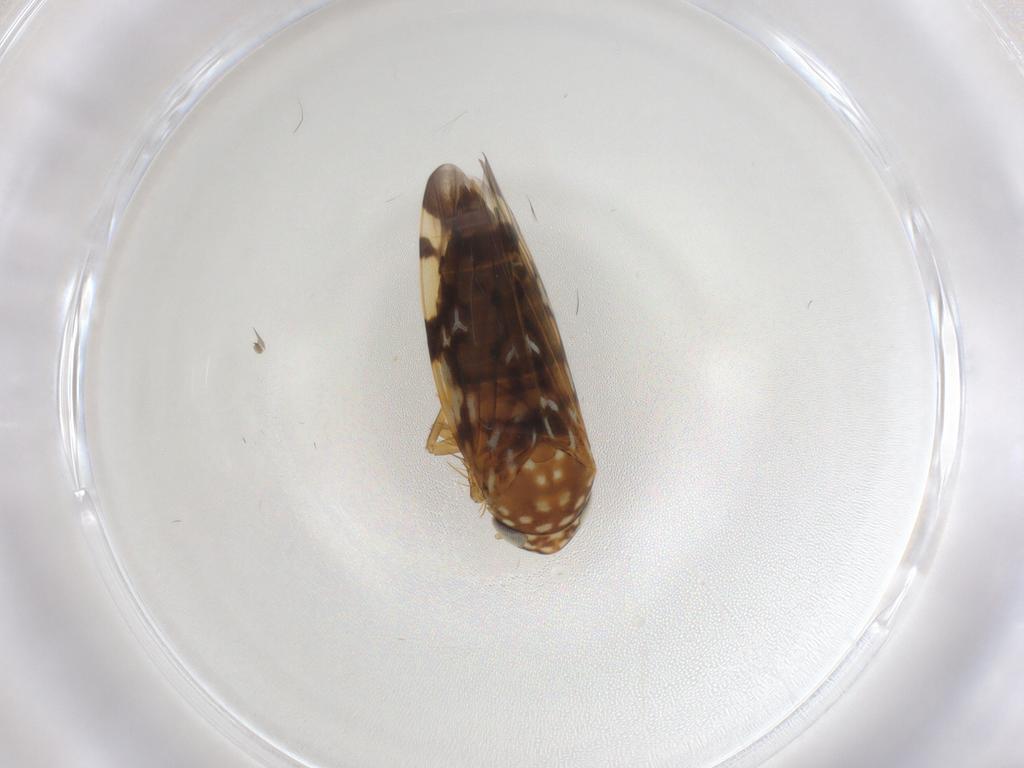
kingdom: Animalia
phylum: Arthropoda
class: Insecta
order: Hemiptera
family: Cicadellidae
